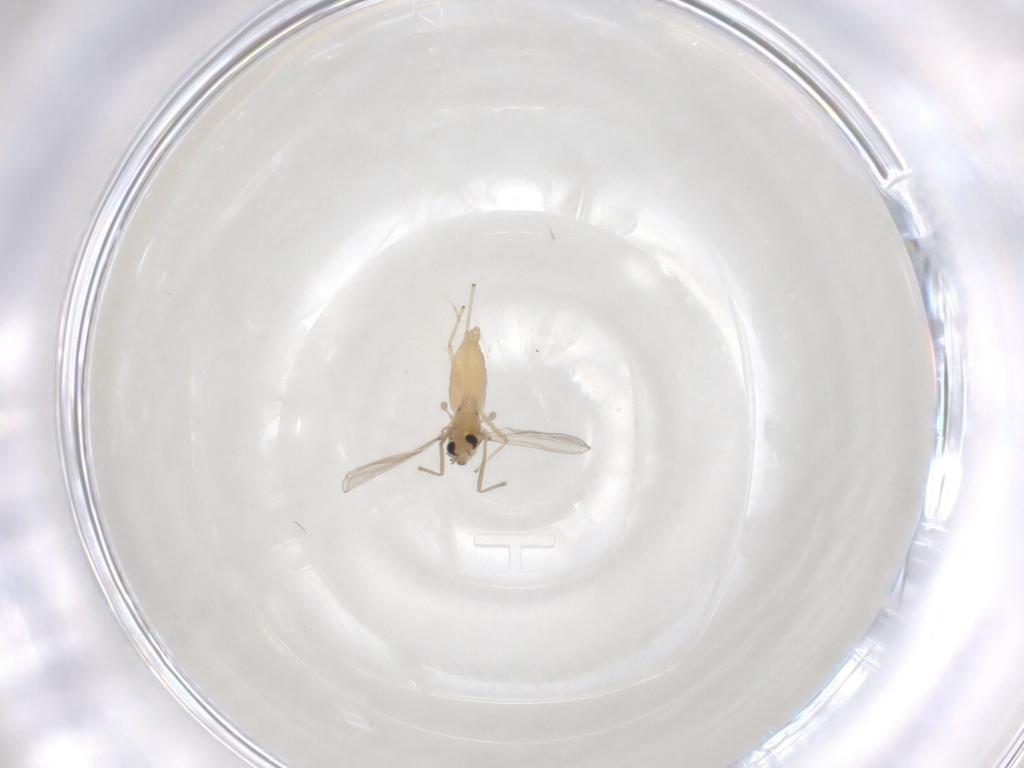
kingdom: Animalia
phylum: Arthropoda
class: Insecta
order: Diptera
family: Chironomidae
